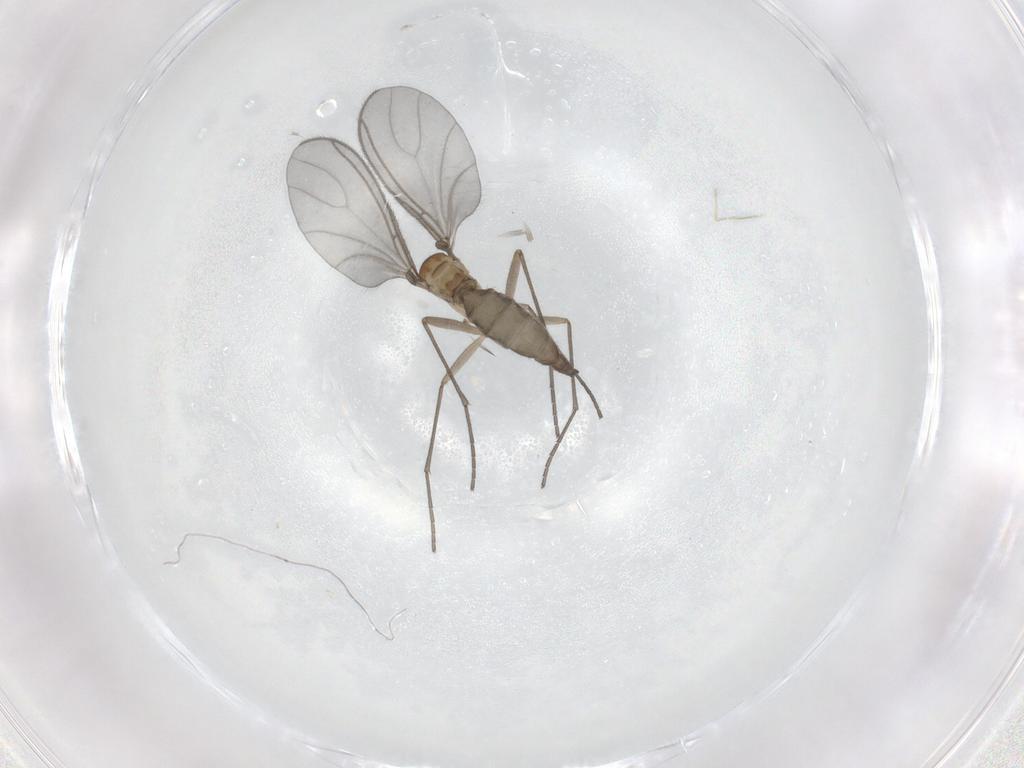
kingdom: Animalia
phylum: Arthropoda
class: Insecta
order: Diptera
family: Sciaridae
